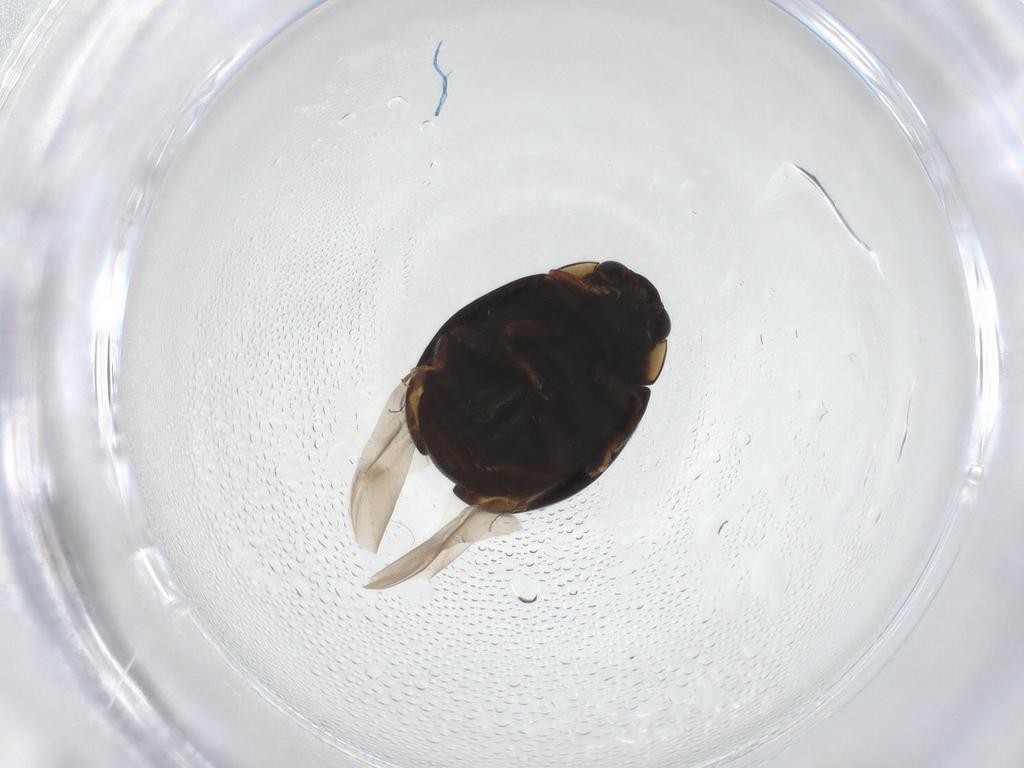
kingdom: Animalia
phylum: Arthropoda
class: Insecta
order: Coleoptera
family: Coccinellidae
